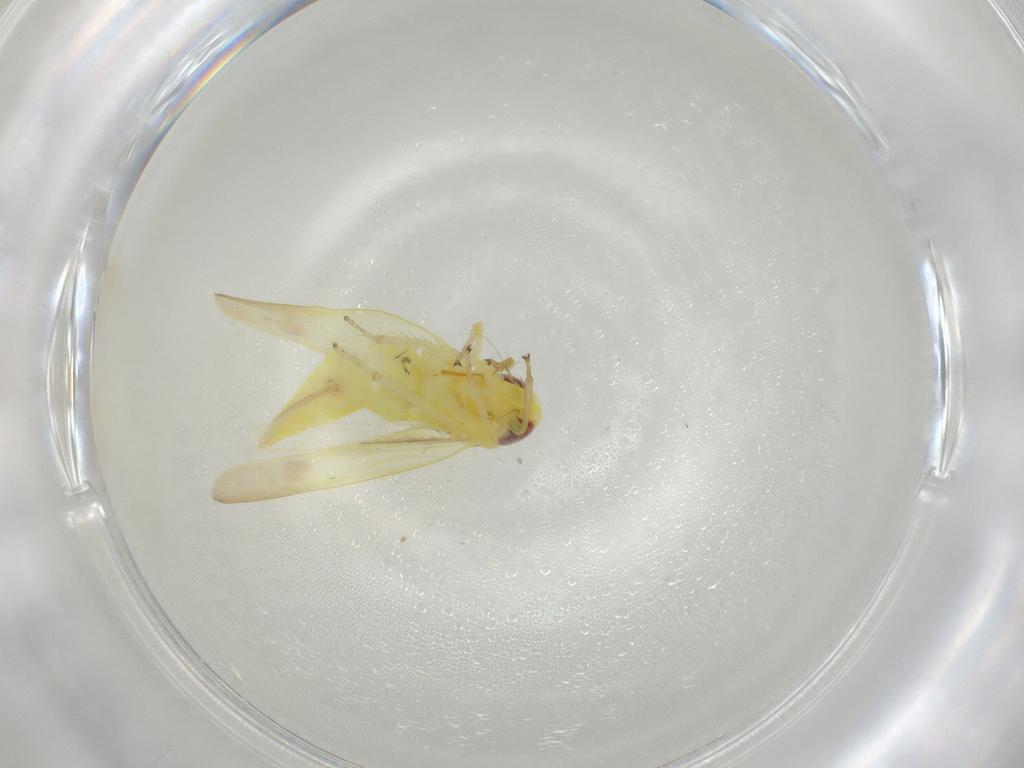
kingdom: Animalia
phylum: Arthropoda
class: Insecta
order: Hemiptera
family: Cicadellidae
